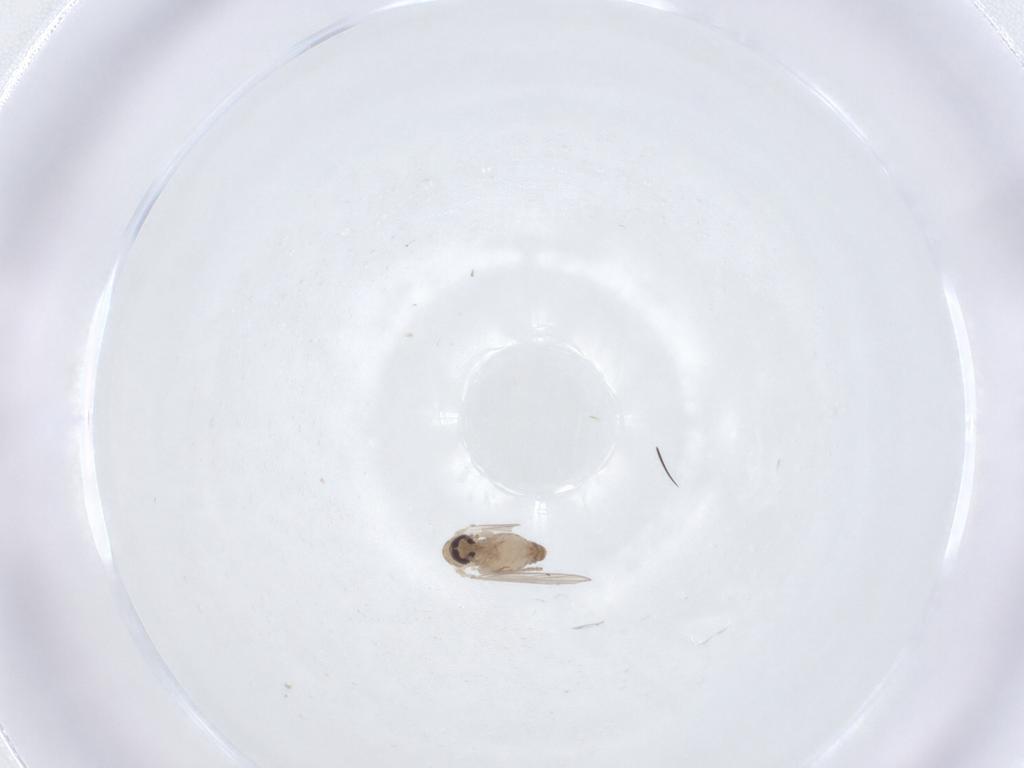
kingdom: Animalia
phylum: Arthropoda
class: Insecta
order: Diptera
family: Psychodidae
